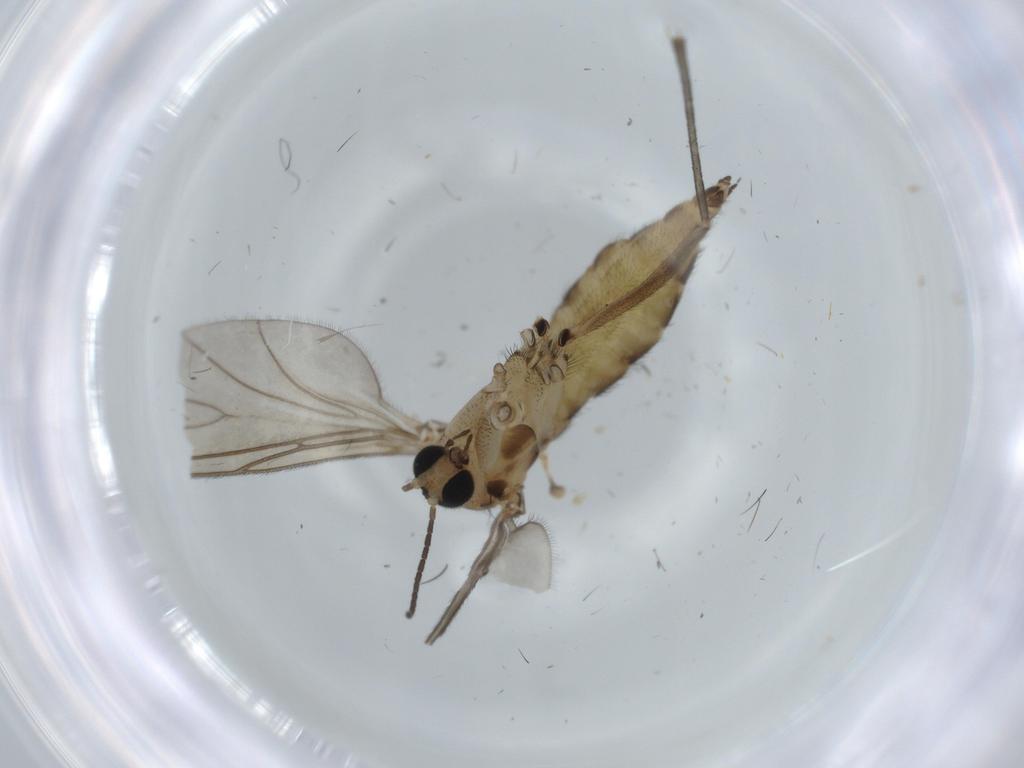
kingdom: Animalia
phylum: Arthropoda
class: Insecta
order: Diptera
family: Sciaridae
